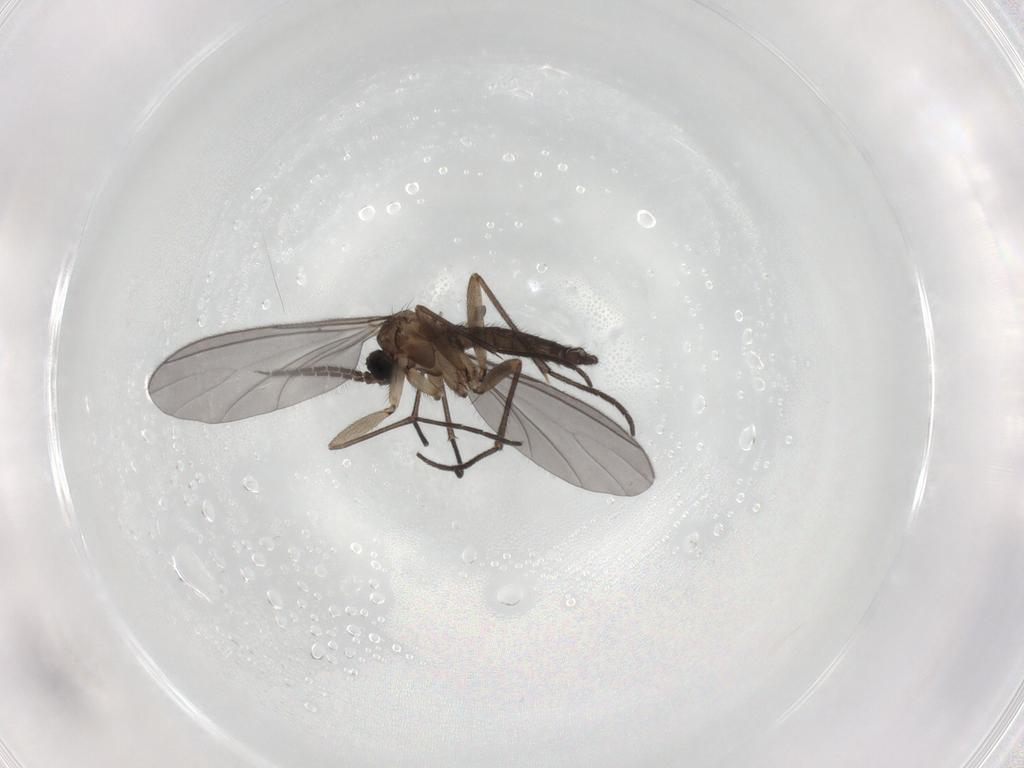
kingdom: Animalia
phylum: Arthropoda
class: Insecta
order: Diptera
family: Sciaridae
